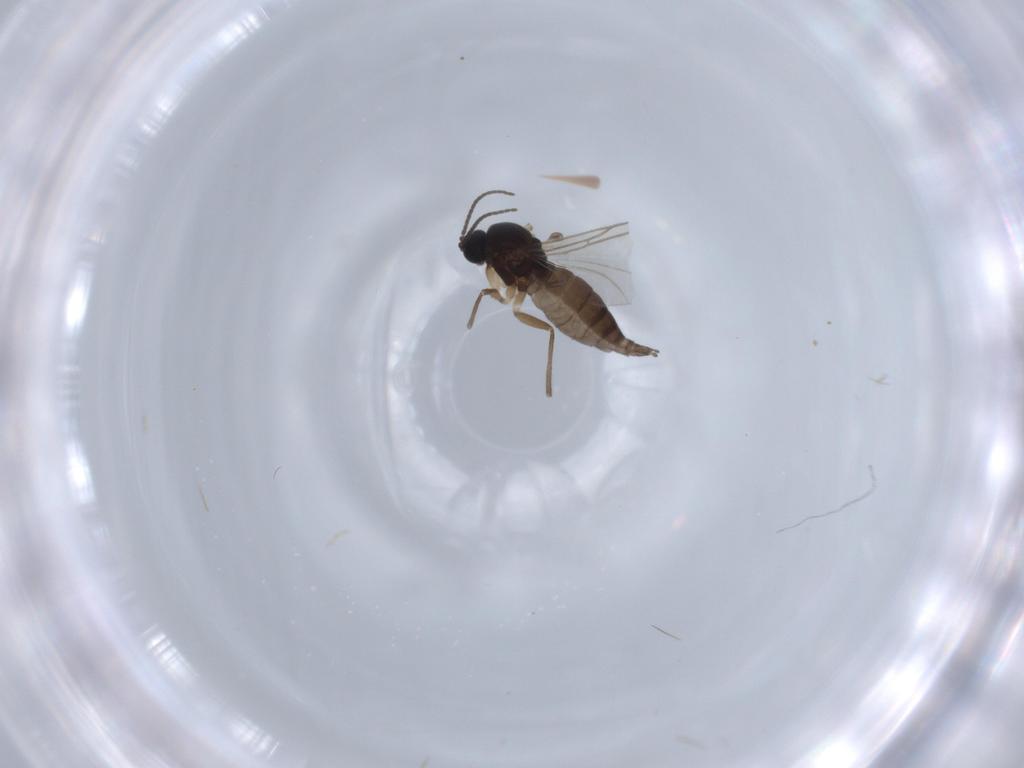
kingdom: Animalia
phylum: Arthropoda
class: Insecta
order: Diptera
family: Sciaridae
